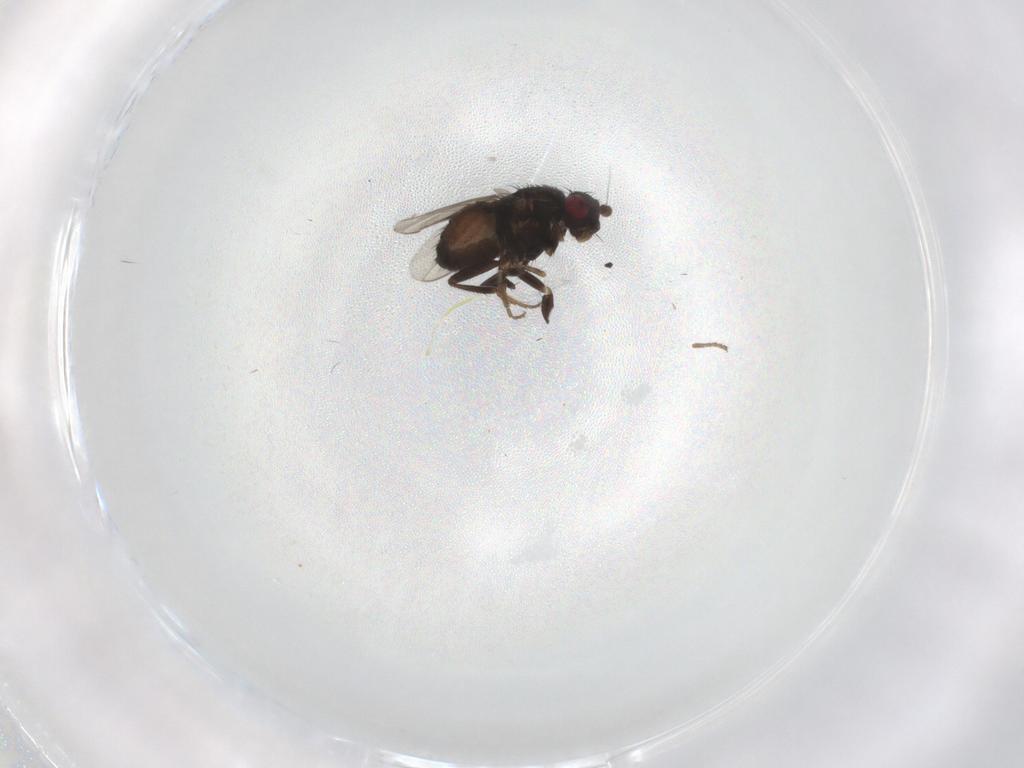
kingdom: Animalia
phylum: Arthropoda
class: Insecta
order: Diptera
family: Sphaeroceridae
